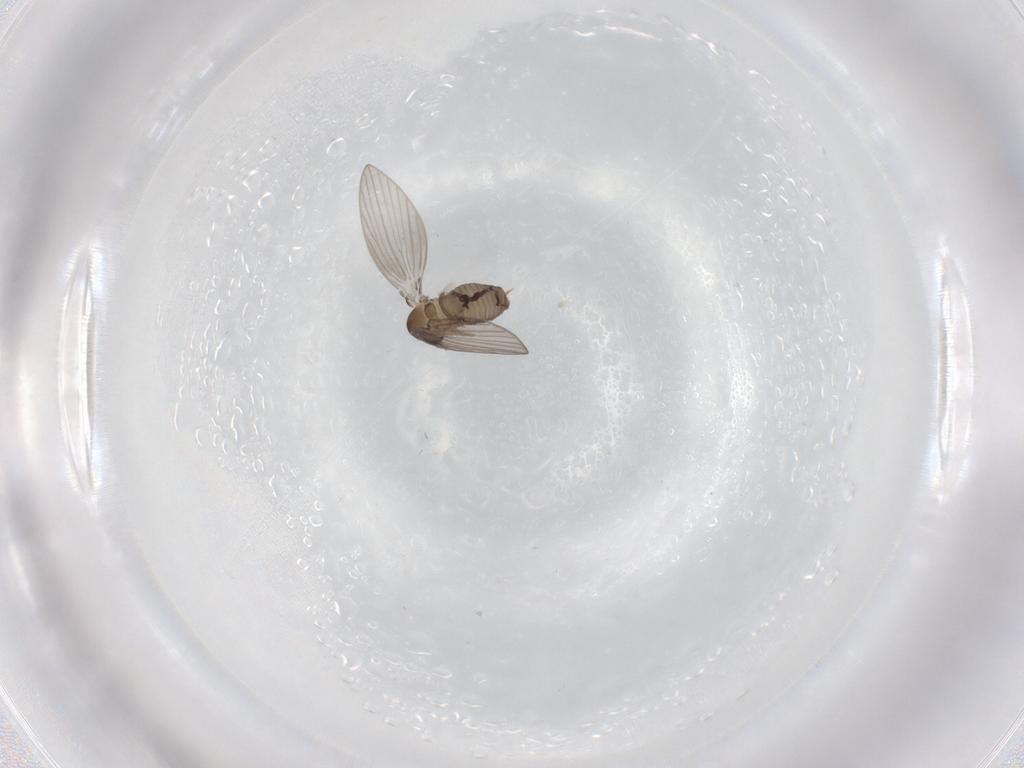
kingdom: Animalia
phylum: Arthropoda
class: Insecta
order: Diptera
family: Psychodidae
